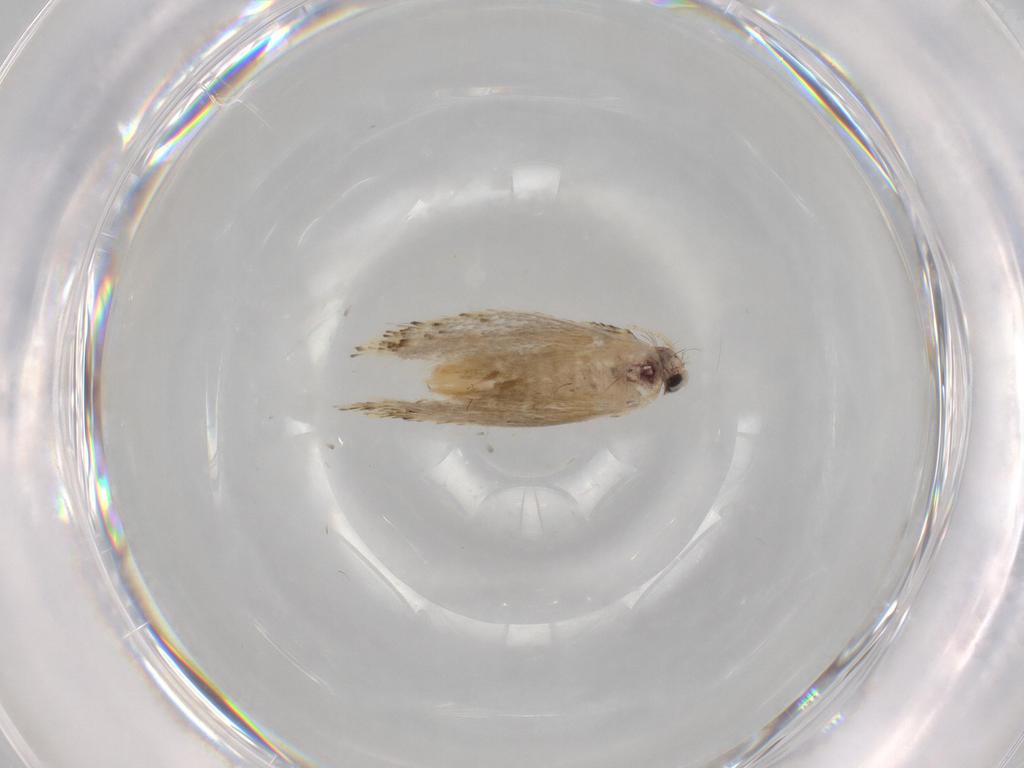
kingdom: Animalia
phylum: Arthropoda
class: Insecta
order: Lepidoptera
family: Nepticulidae
